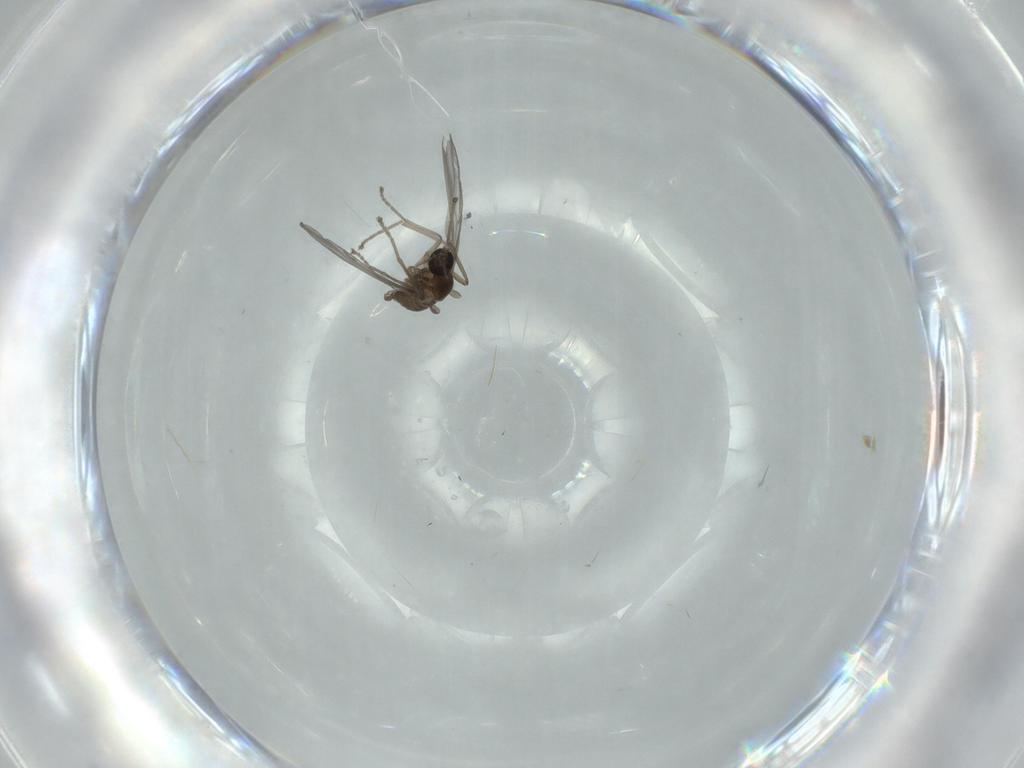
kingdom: Animalia
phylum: Arthropoda
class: Insecta
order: Diptera
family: Cecidomyiidae
